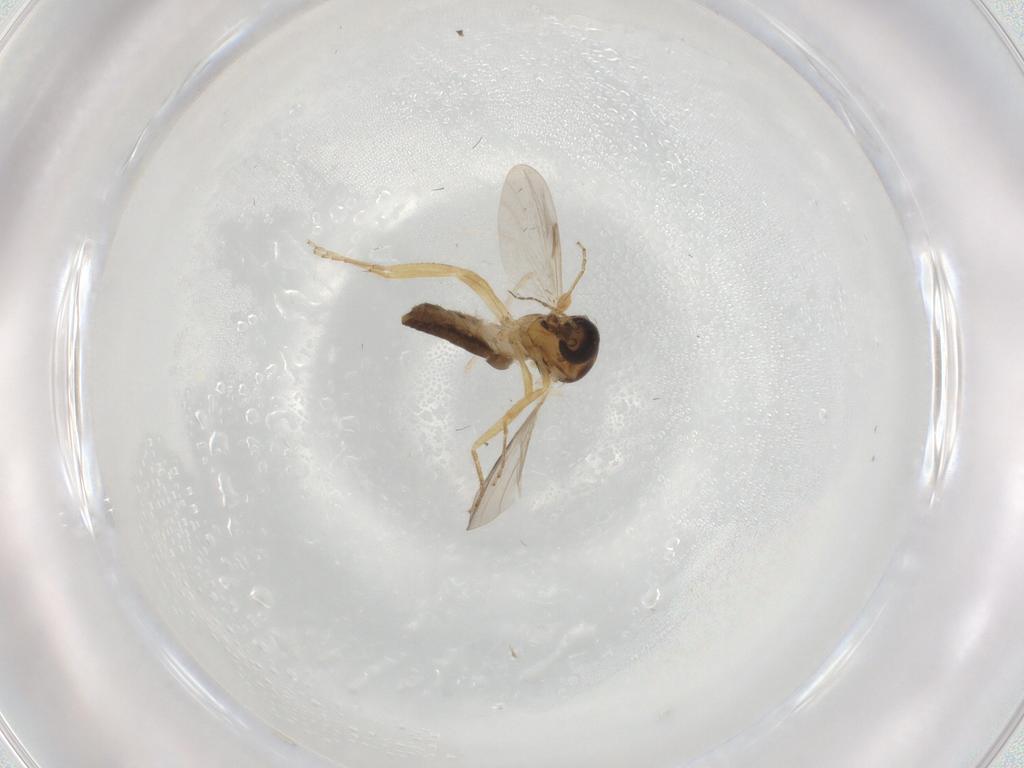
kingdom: Animalia
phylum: Arthropoda
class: Insecta
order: Diptera
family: Ceratopogonidae
